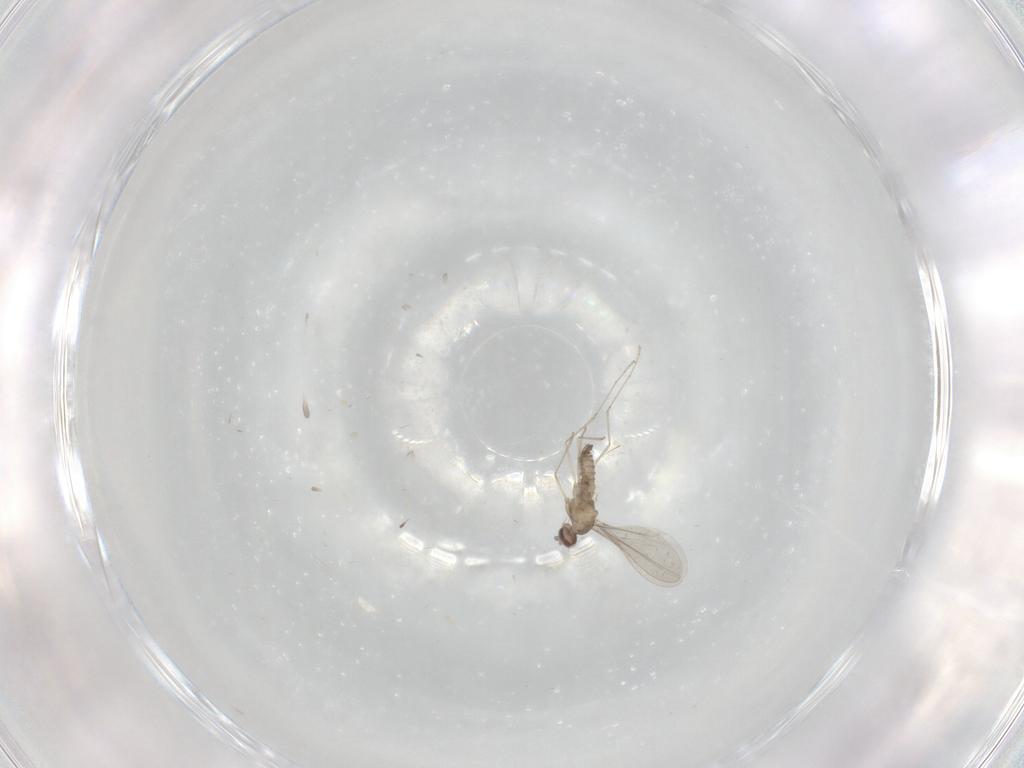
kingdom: Animalia
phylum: Arthropoda
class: Insecta
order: Diptera
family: Cecidomyiidae
